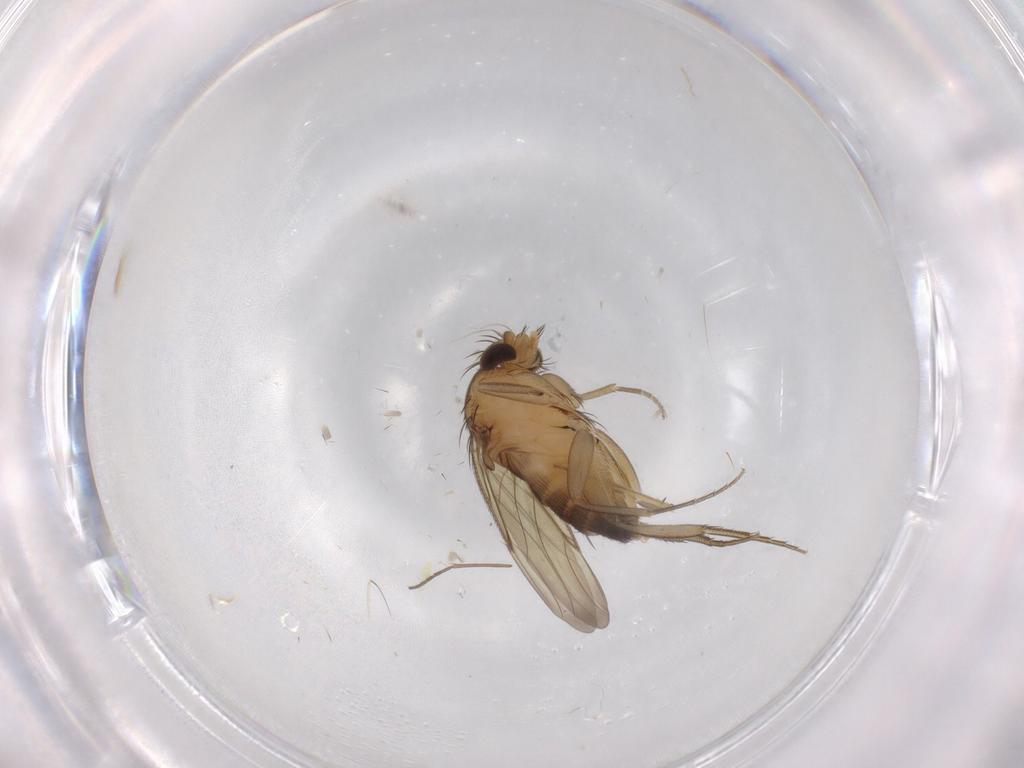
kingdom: Animalia
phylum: Arthropoda
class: Insecta
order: Diptera
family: Phoridae
